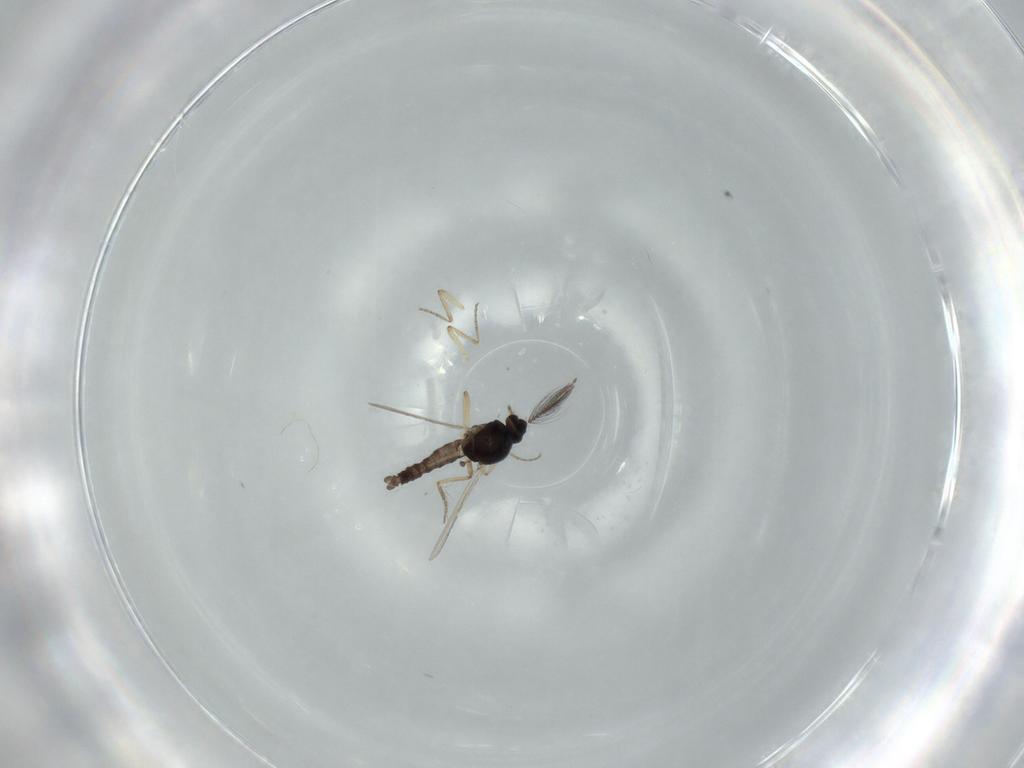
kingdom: Animalia
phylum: Arthropoda
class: Insecta
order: Diptera
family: Ceratopogonidae
